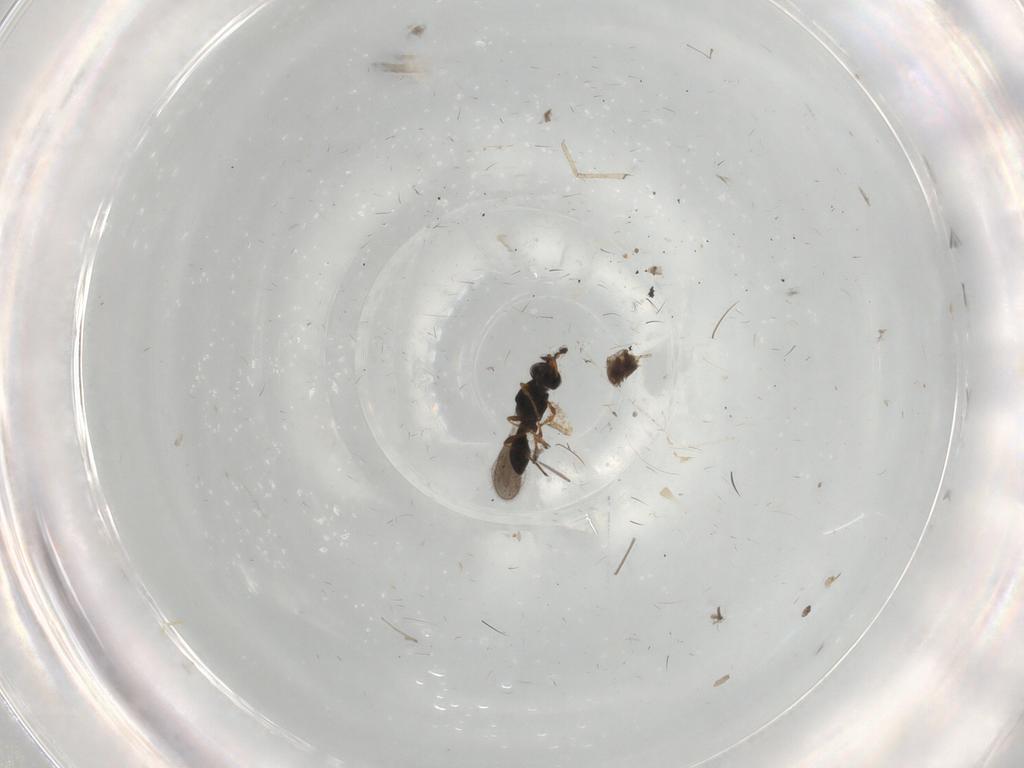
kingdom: Animalia
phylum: Arthropoda
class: Insecta
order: Hymenoptera
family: Platygastridae
